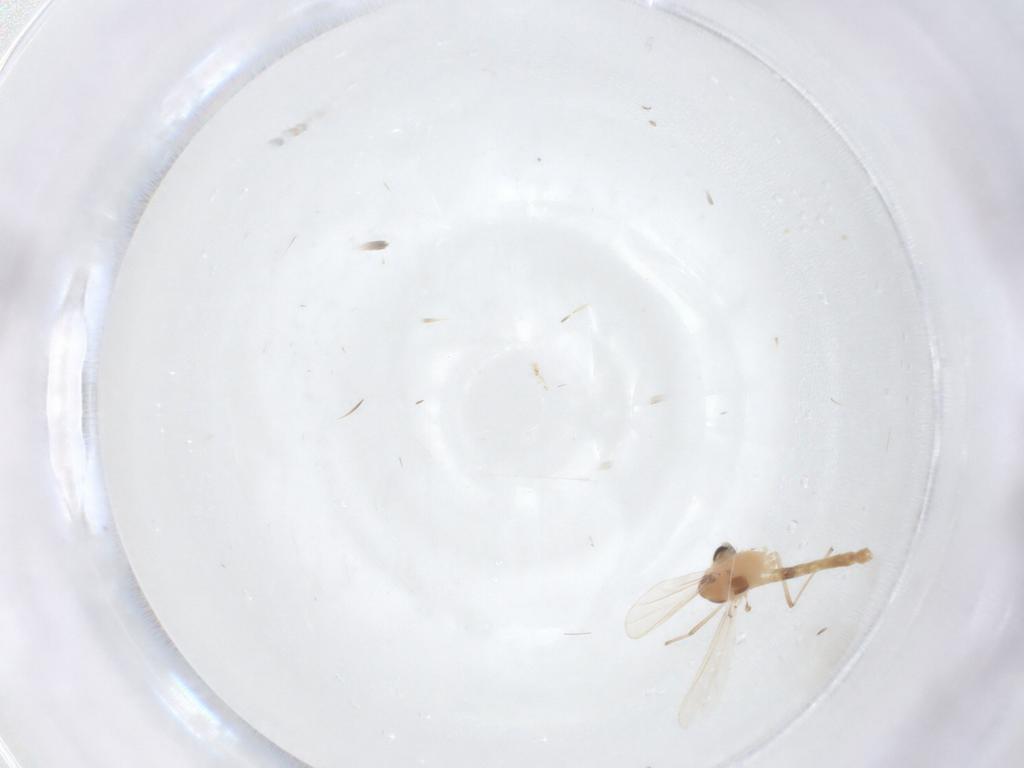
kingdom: Animalia
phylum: Arthropoda
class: Insecta
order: Diptera
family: Chironomidae
